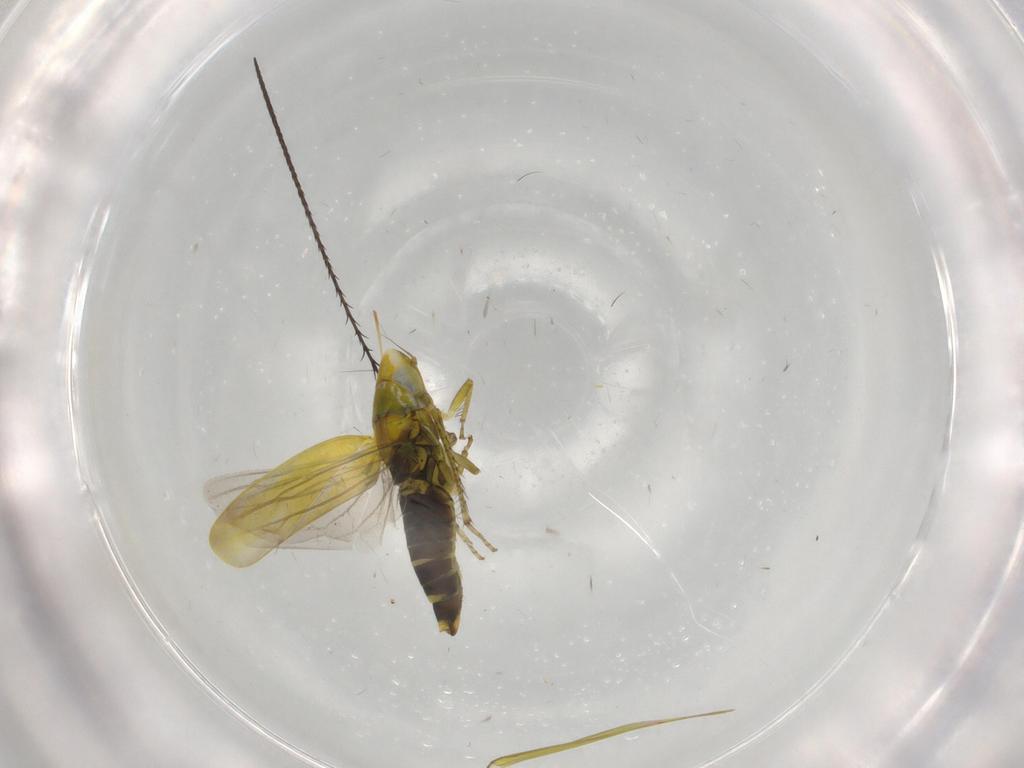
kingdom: Animalia
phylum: Arthropoda
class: Insecta
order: Hemiptera
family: Cicadellidae
